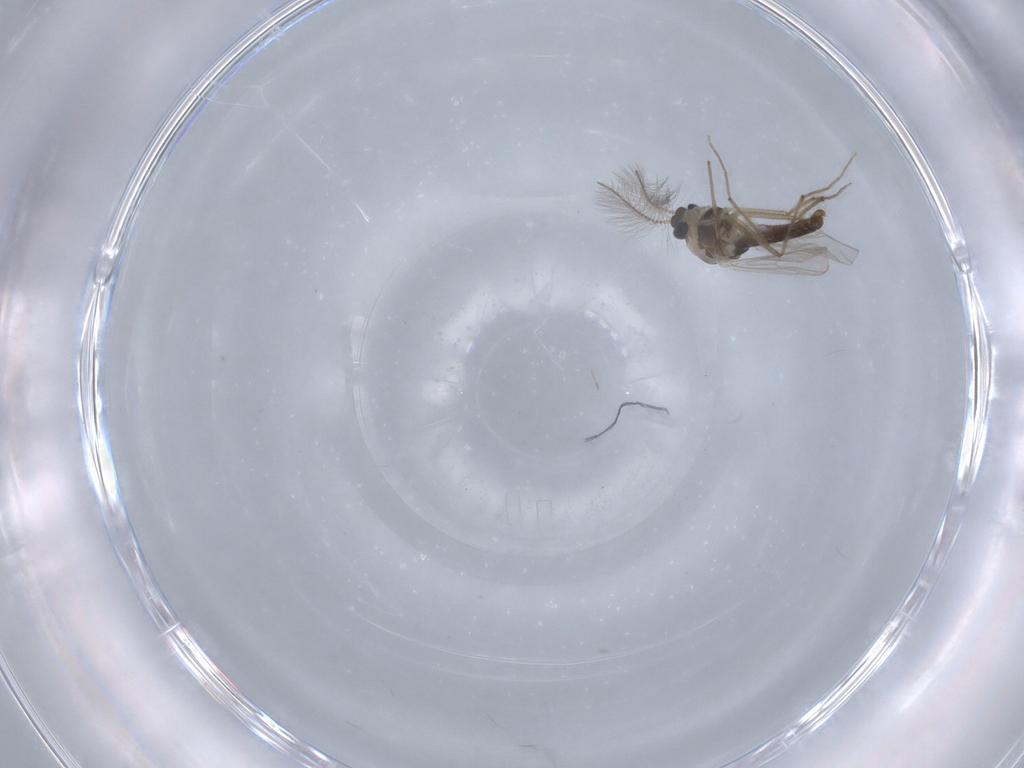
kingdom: Animalia
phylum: Arthropoda
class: Insecta
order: Diptera
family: Chironomidae
